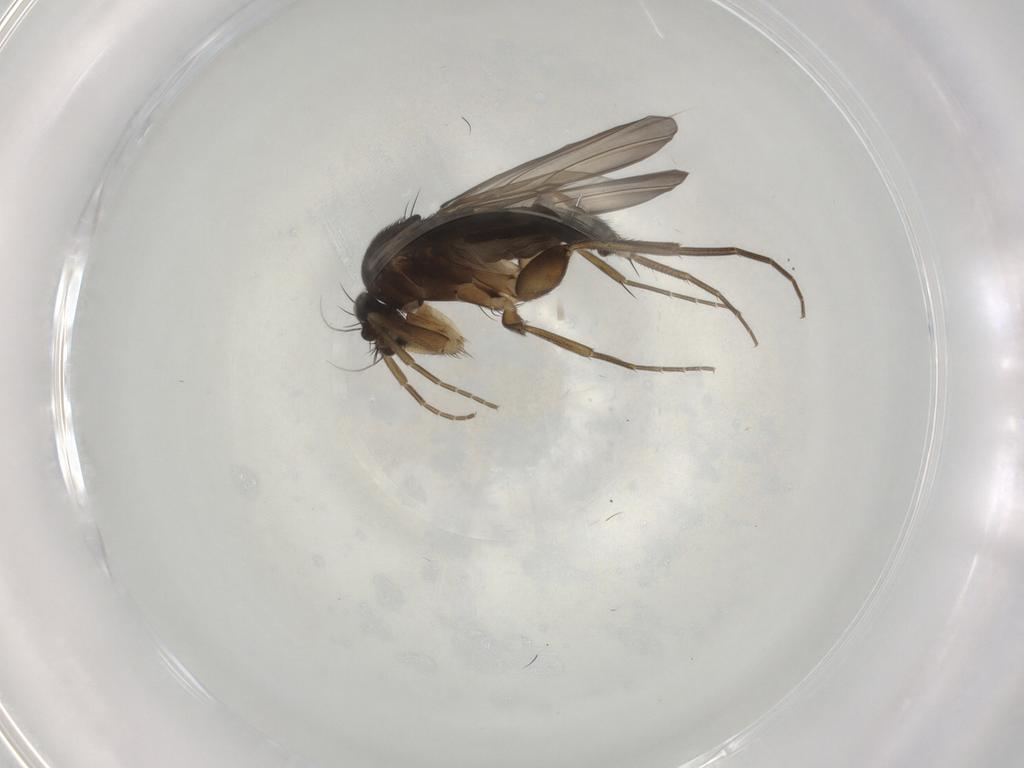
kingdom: Animalia
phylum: Arthropoda
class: Insecta
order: Diptera
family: Phoridae
